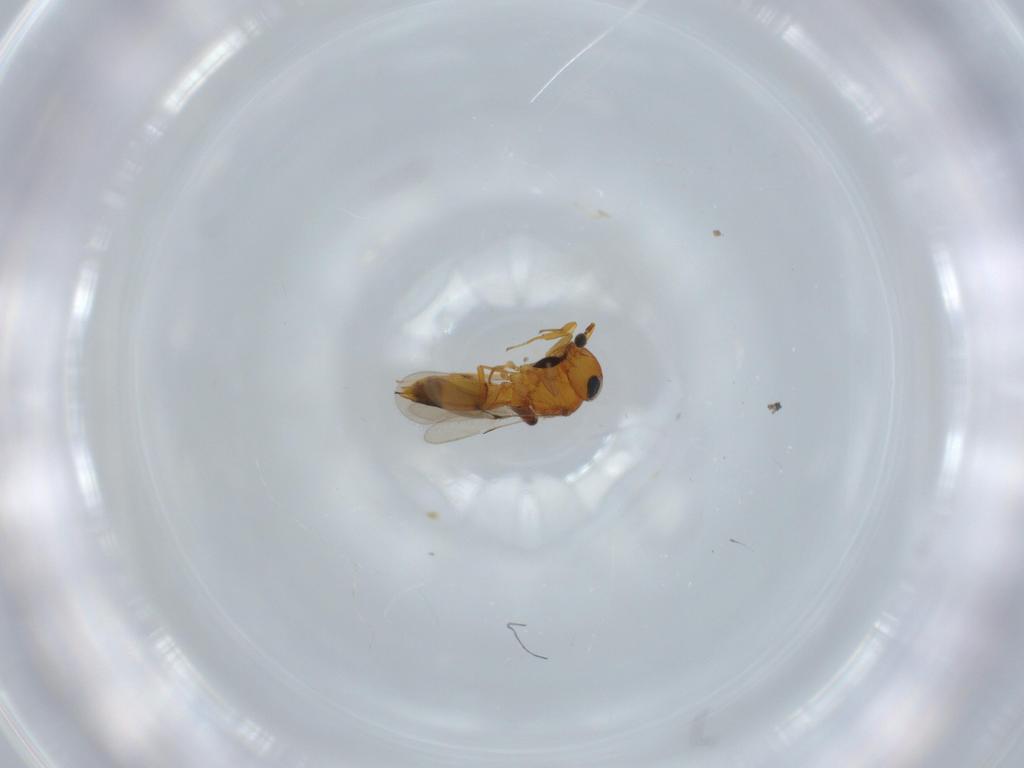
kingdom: Animalia
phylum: Arthropoda
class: Insecta
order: Hymenoptera
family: Scelionidae
